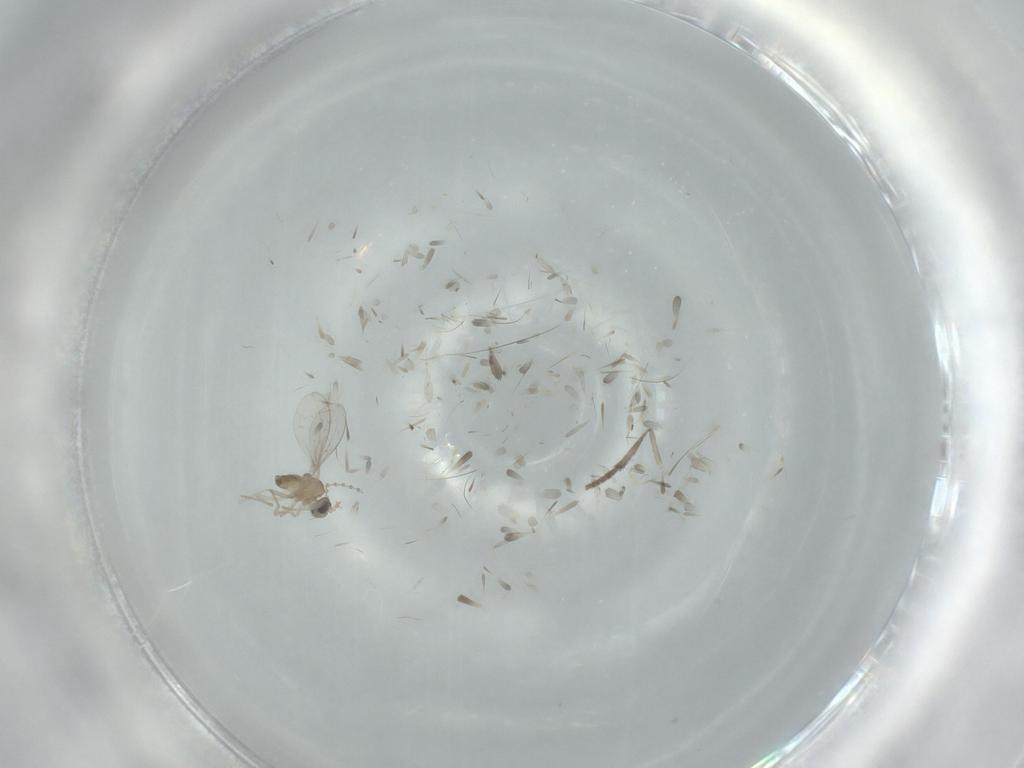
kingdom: Animalia
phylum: Arthropoda
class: Insecta
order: Diptera
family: Cecidomyiidae
